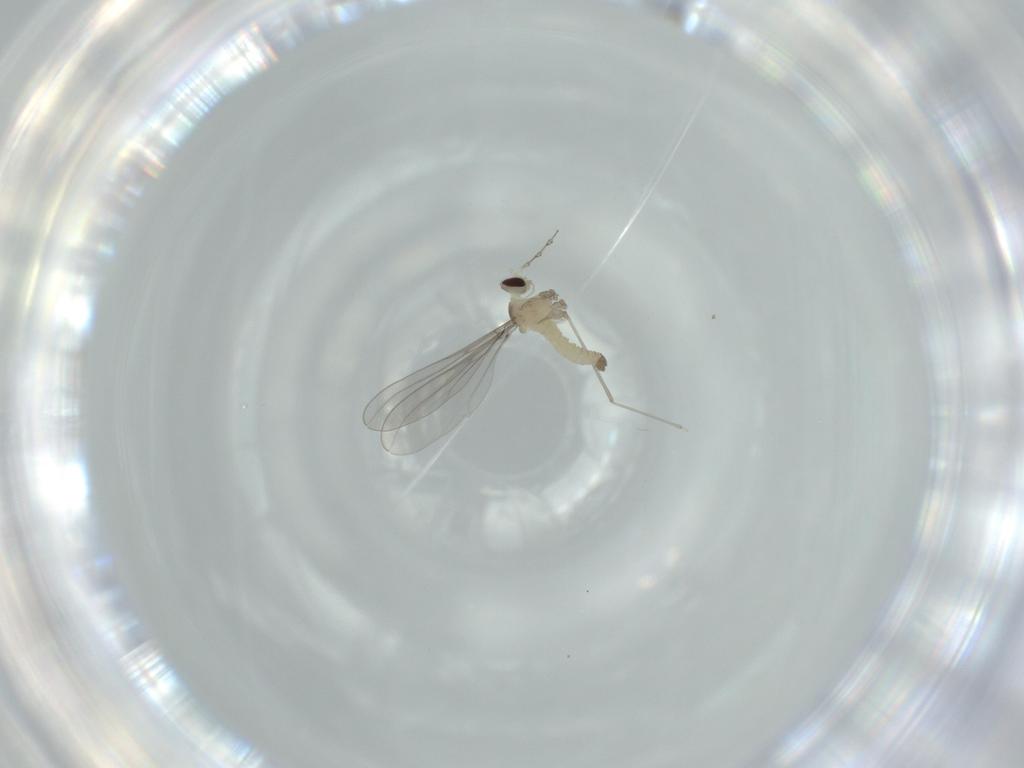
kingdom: Animalia
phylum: Arthropoda
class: Insecta
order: Diptera
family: Cecidomyiidae
